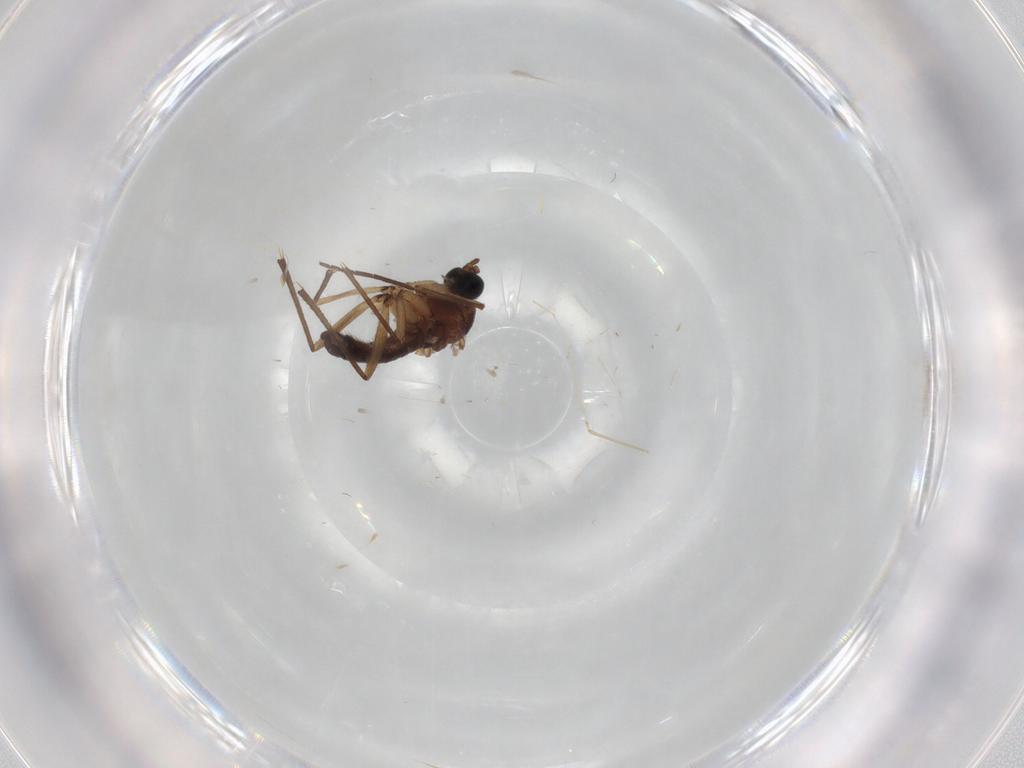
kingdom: Animalia
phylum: Arthropoda
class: Insecta
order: Diptera
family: Sciaridae
